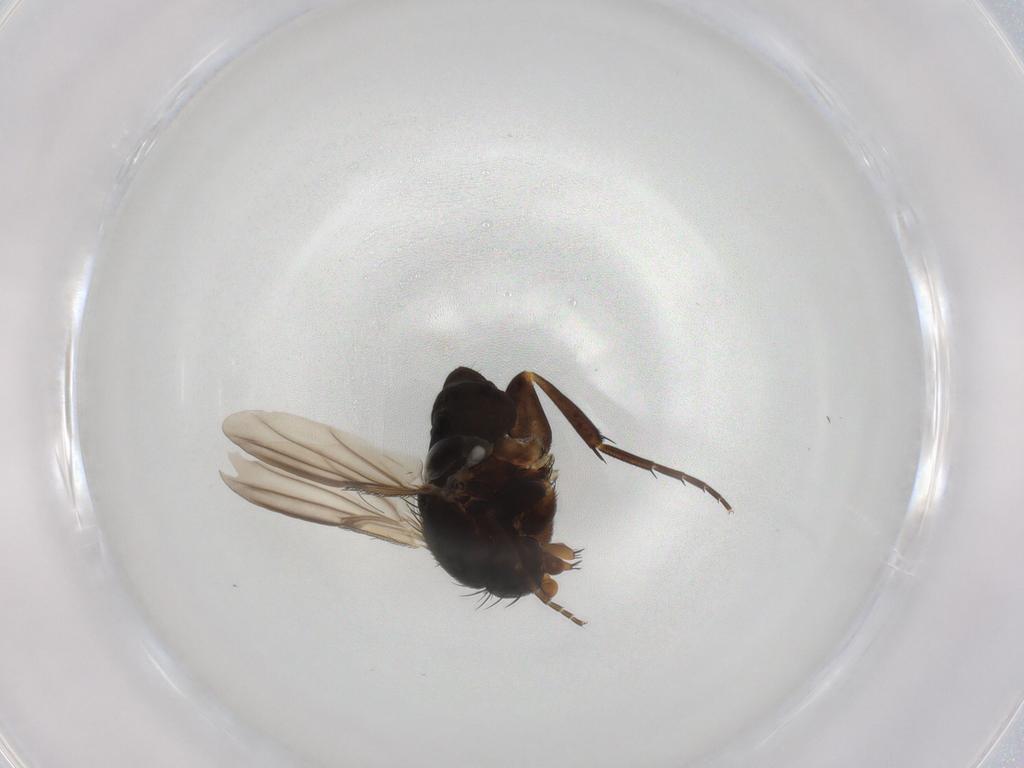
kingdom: Animalia
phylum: Arthropoda
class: Insecta
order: Diptera
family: Phoridae
